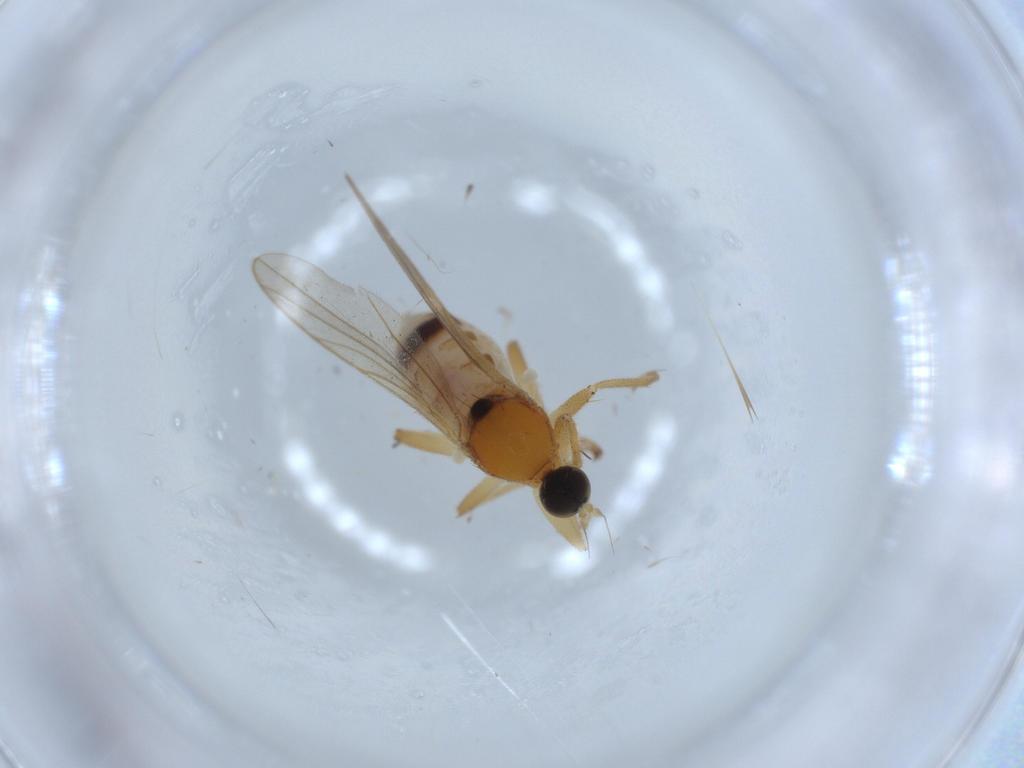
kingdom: Animalia
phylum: Arthropoda
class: Insecta
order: Diptera
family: Hybotidae
